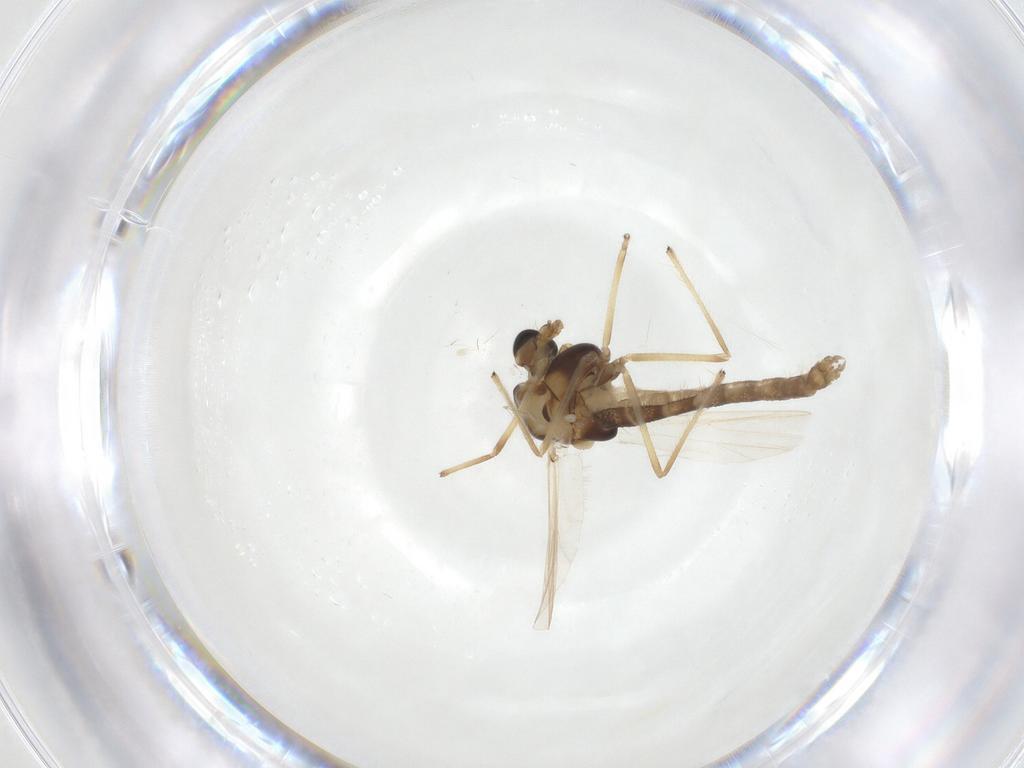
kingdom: Animalia
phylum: Arthropoda
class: Insecta
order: Diptera
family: Chironomidae
